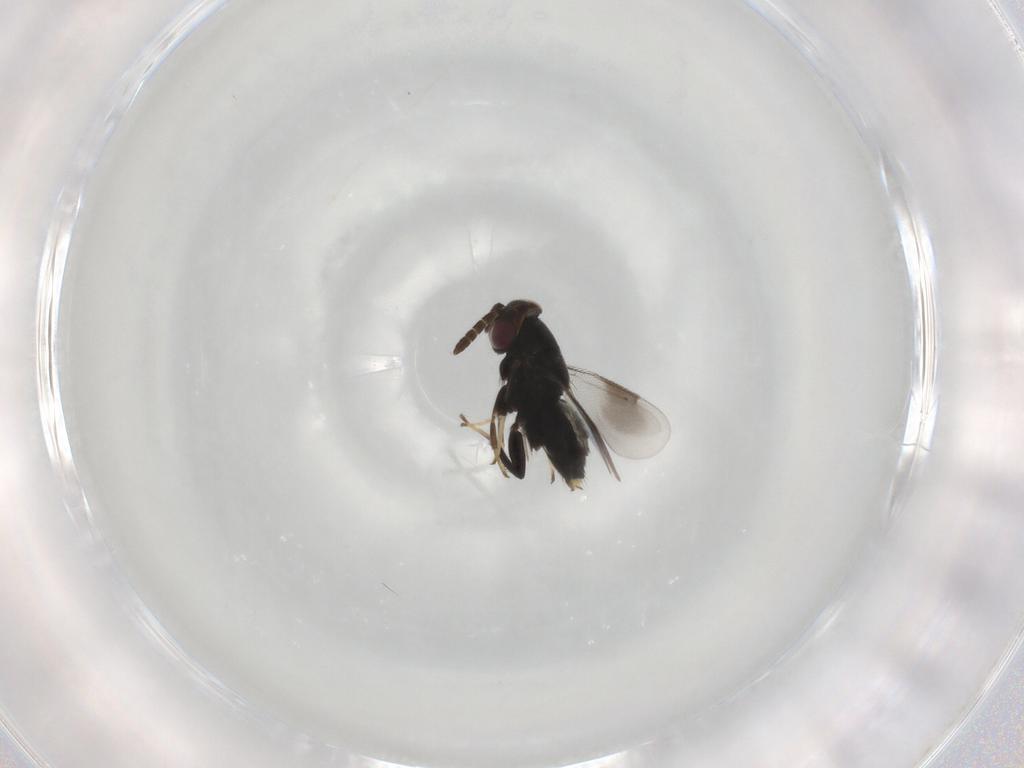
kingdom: Animalia
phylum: Arthropoda
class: Insecta
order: Hymenoptera
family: Aphelinidae
